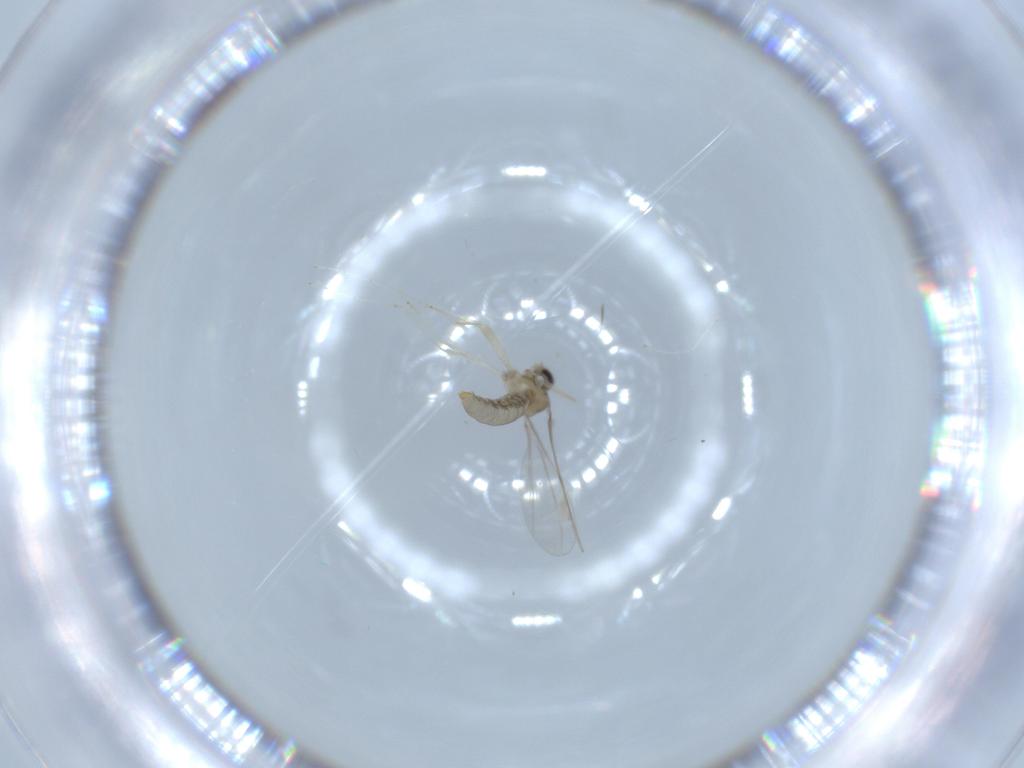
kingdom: Animalia
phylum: Arthropoda
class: Insecta
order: Diptera
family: Cecidomyiidae
